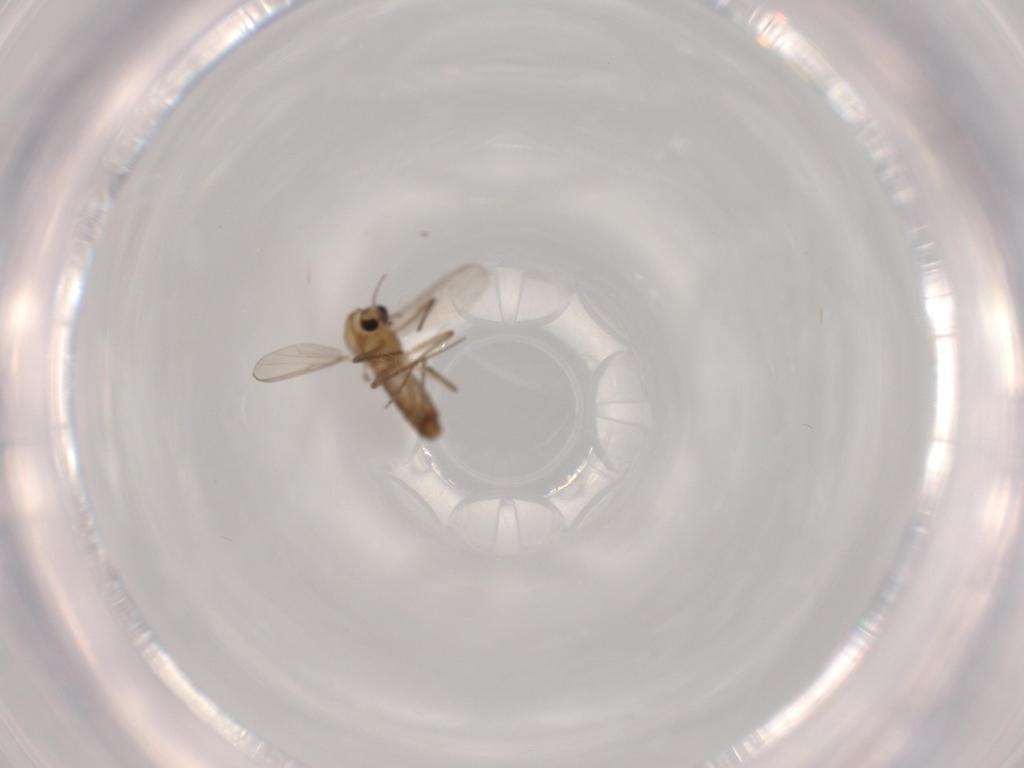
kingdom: Animalia
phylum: Arthropoda
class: Insecta
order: Diptera
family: Chironomidae
